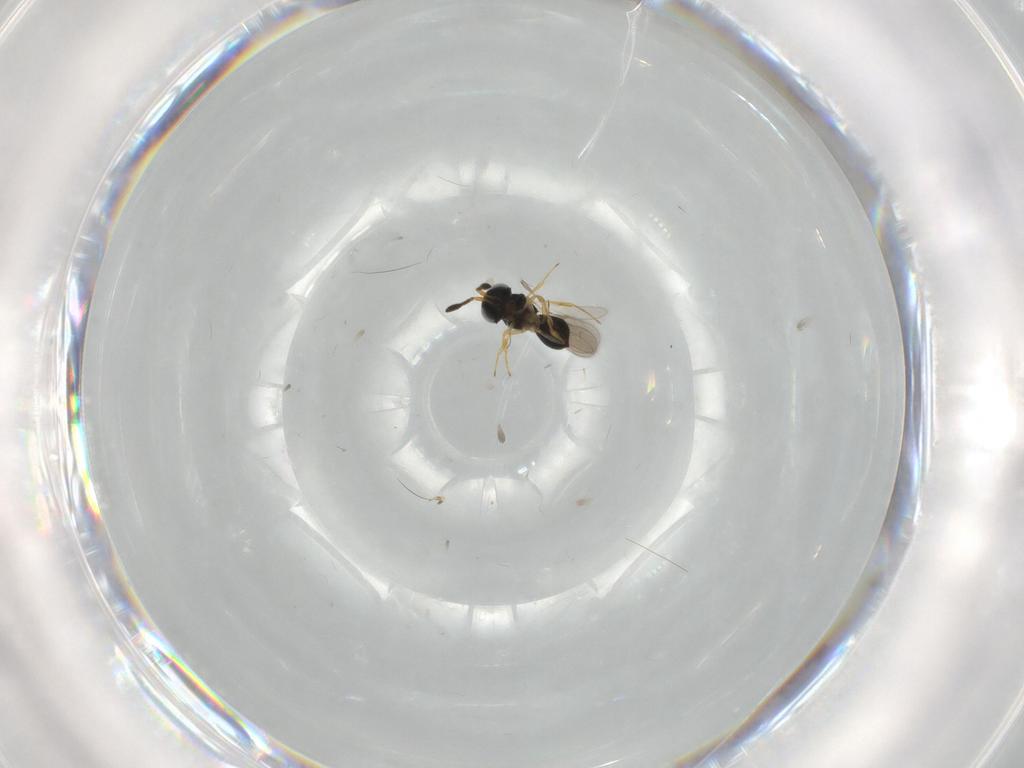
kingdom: Animalia
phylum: Arthropoda
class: Insecta
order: Hymenoptera
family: Scelionidae
